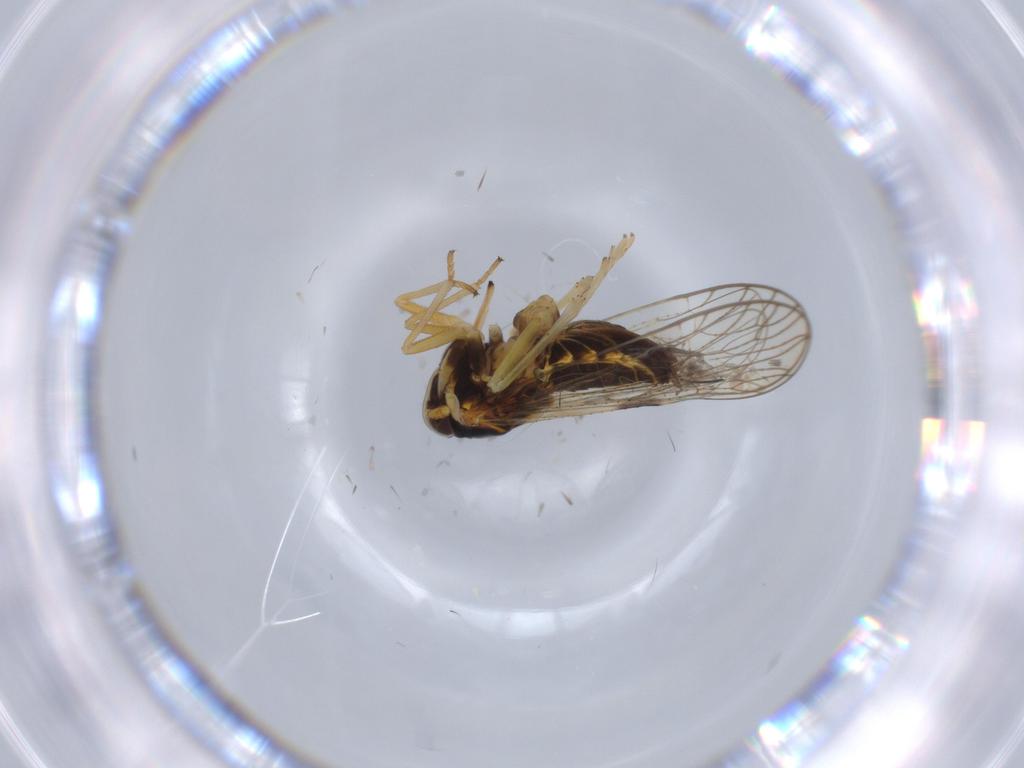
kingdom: Animalia
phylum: Arthropoda
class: Insecta
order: Hemiptera
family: Cicadellidae
